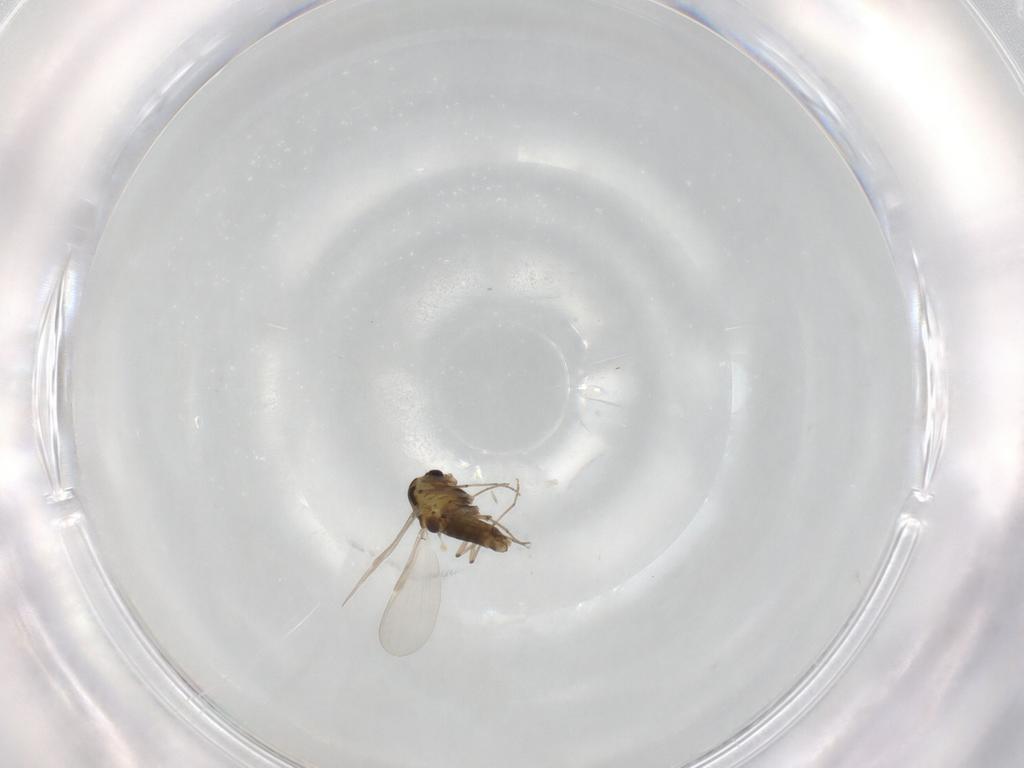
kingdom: Animalia
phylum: Arthropoda
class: Insecta
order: Diptera
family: Chironomidae
